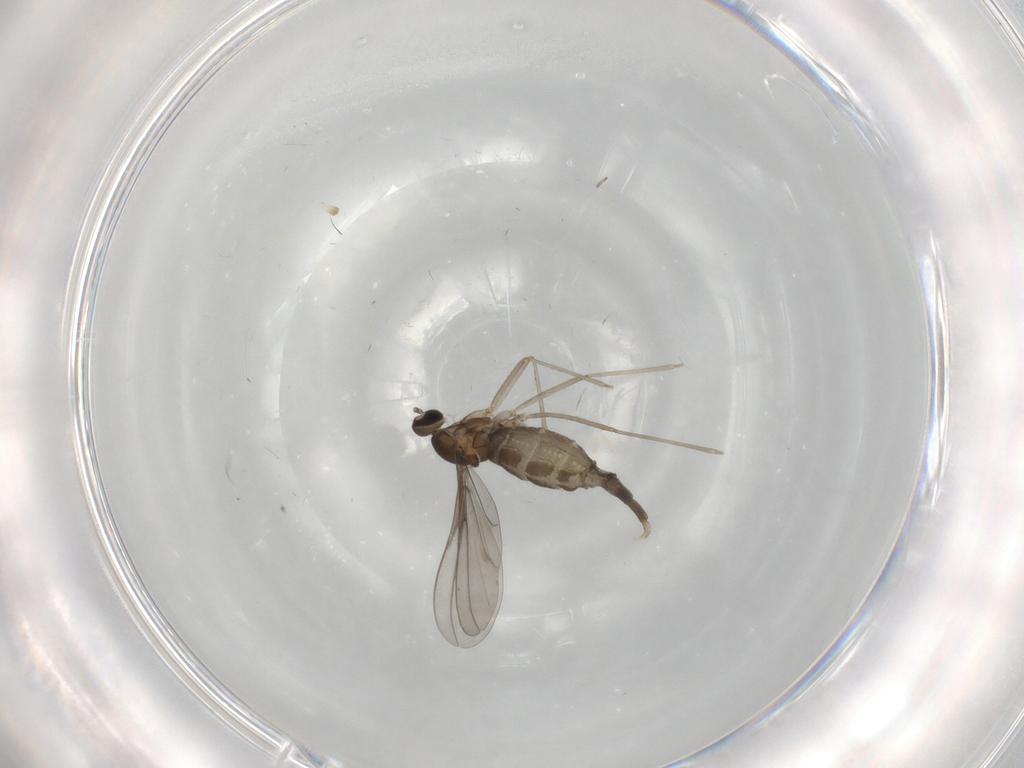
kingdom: Animalia
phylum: Arthropoda
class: Insecta
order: Diptera
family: Cecidomyiidae
